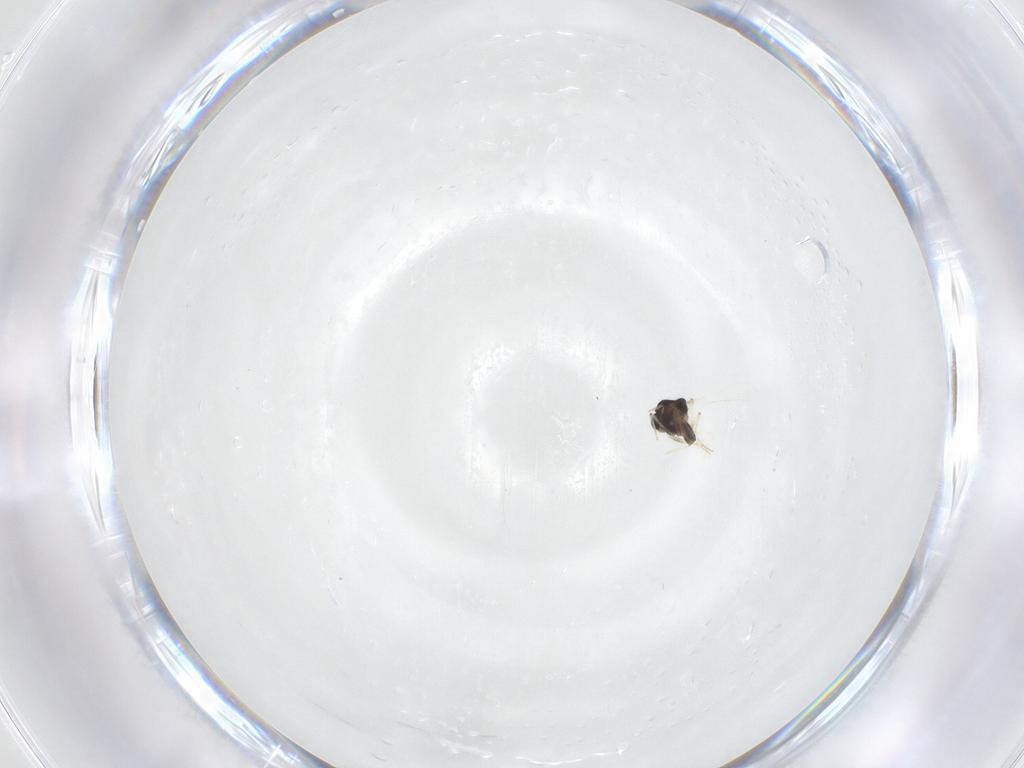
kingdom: Animalia
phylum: Arthropoda
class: Insecta
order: Diptera
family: Chironomidae
